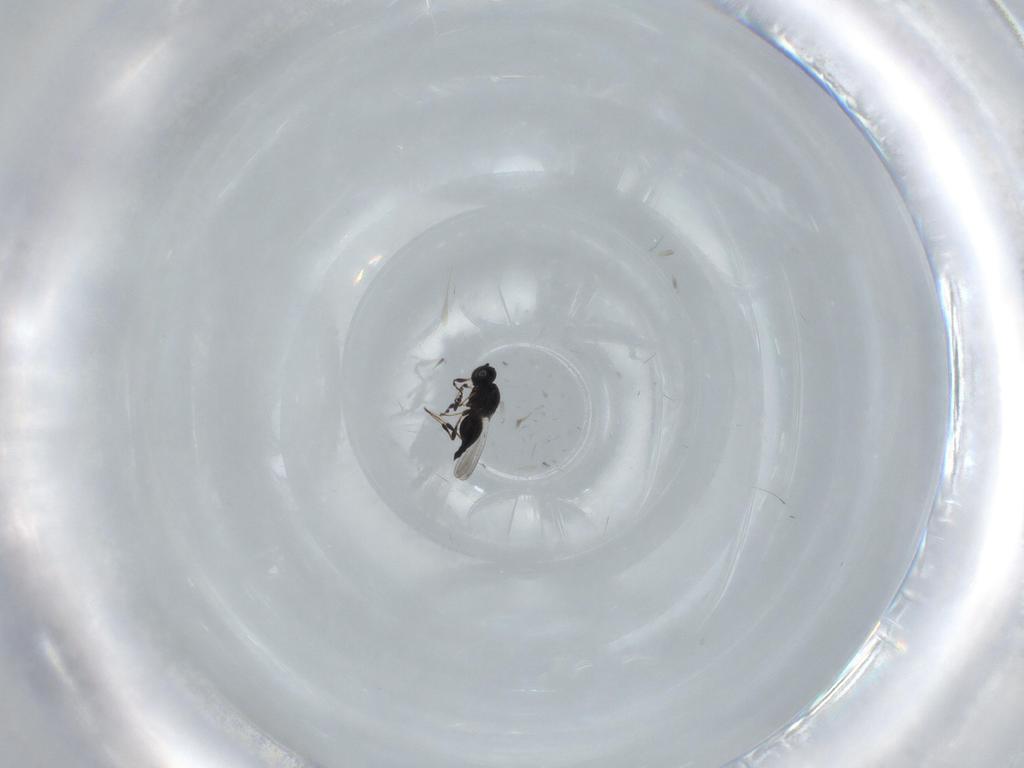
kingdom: Animalia
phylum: Arthropoda
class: Insecta
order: Hymenoptera
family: Platygastridae
